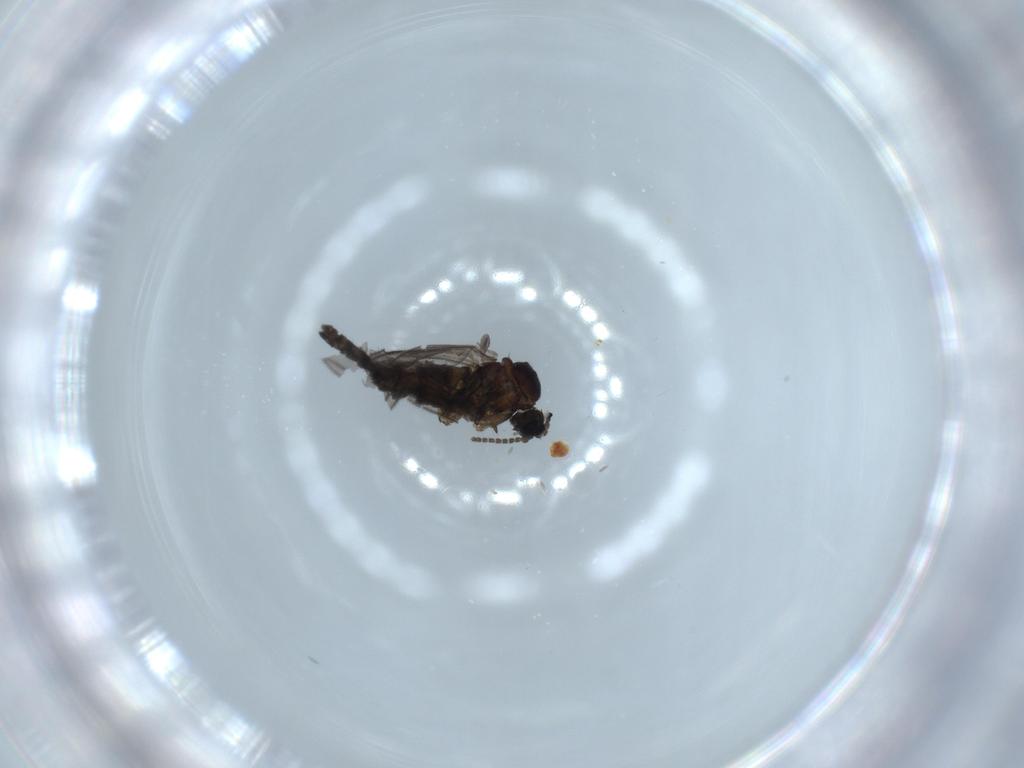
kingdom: Animalia
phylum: Arthropoda
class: Insecta
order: Diptera
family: Sciaridae
